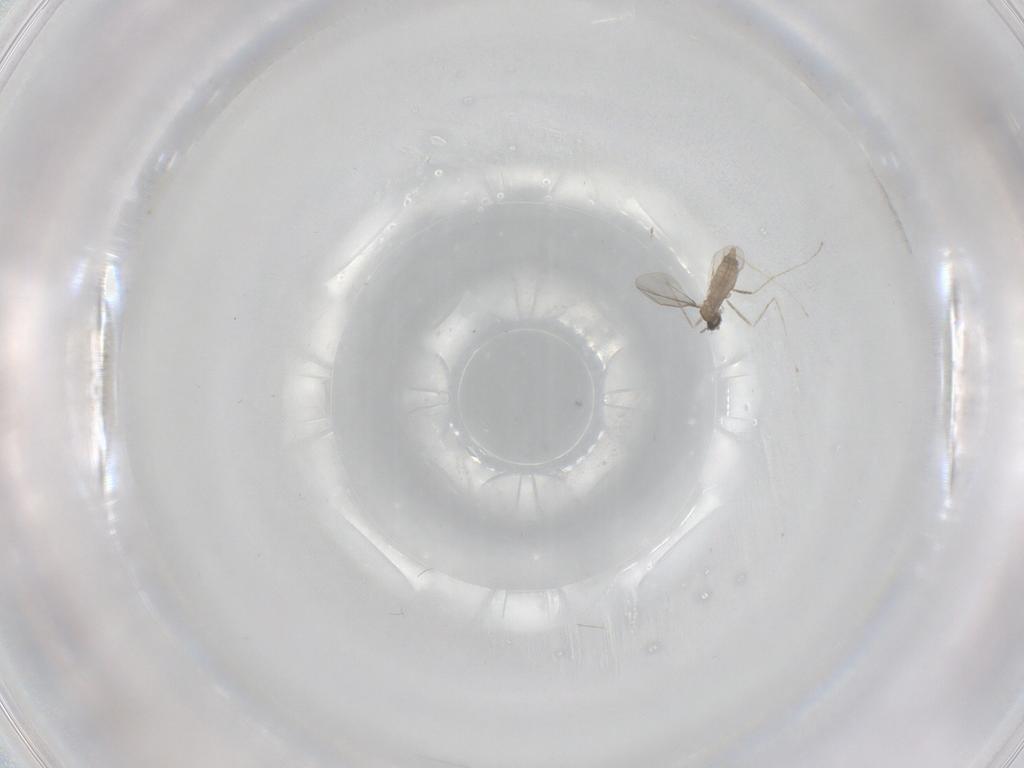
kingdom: Animalia
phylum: Arthropoda
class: Insecta
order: Diptera
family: Cecidomyiidae
